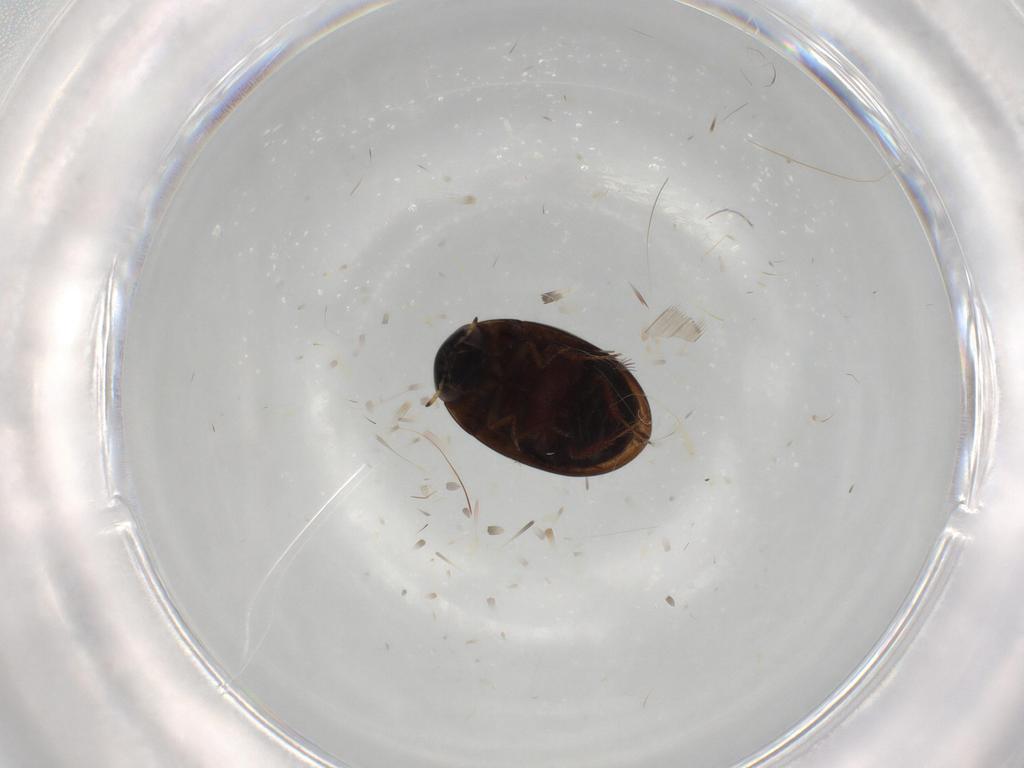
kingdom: Animalia
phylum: Arthropoda
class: Insecta
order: Coleoptera
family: Hydrophilidae
